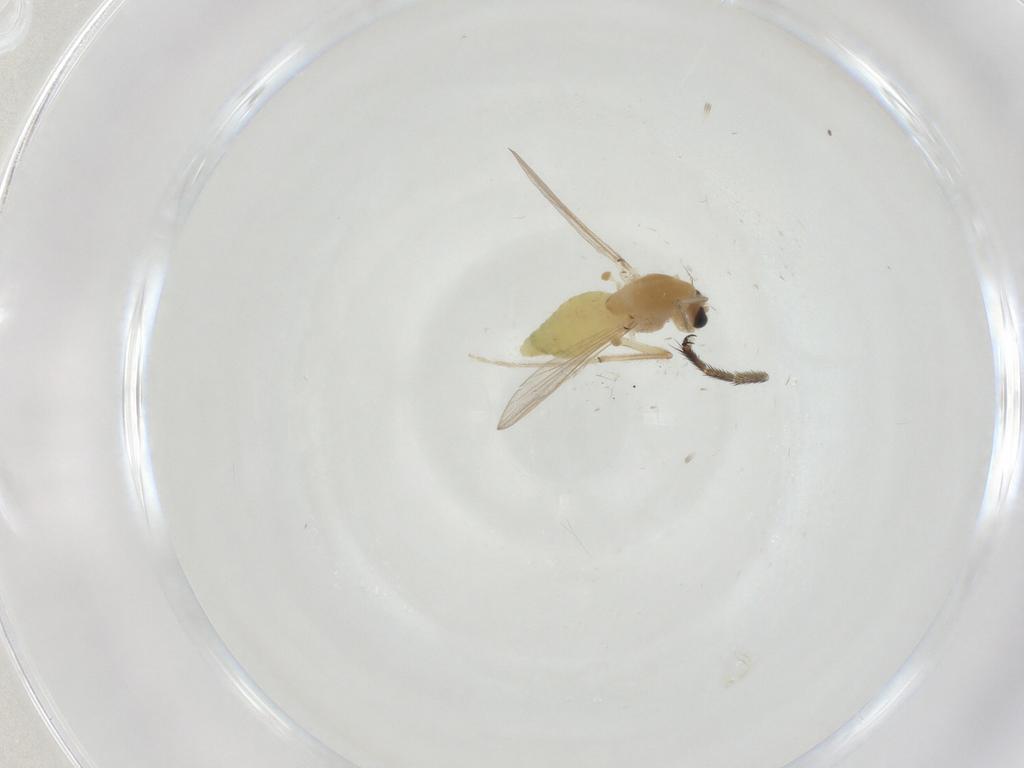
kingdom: Animalia
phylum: Arthropoda
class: Insecta
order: Diptera
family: Chironomidae
